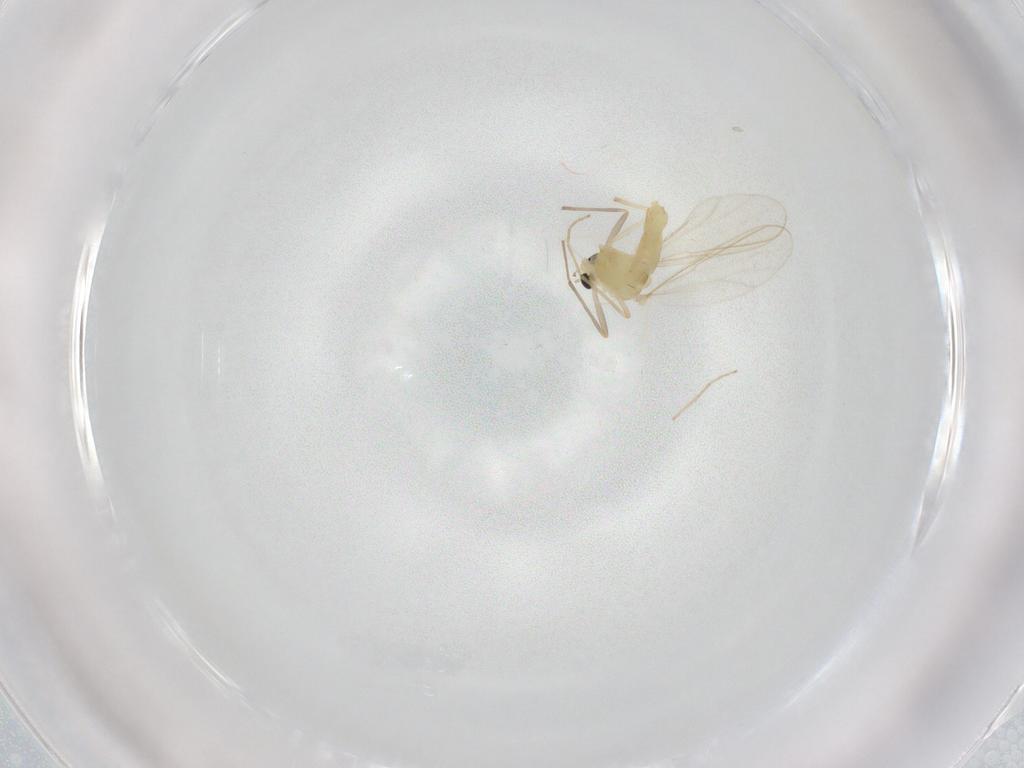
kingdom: Animalia
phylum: Arthropoda
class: Insecta
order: Diptera
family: Chironomidae
